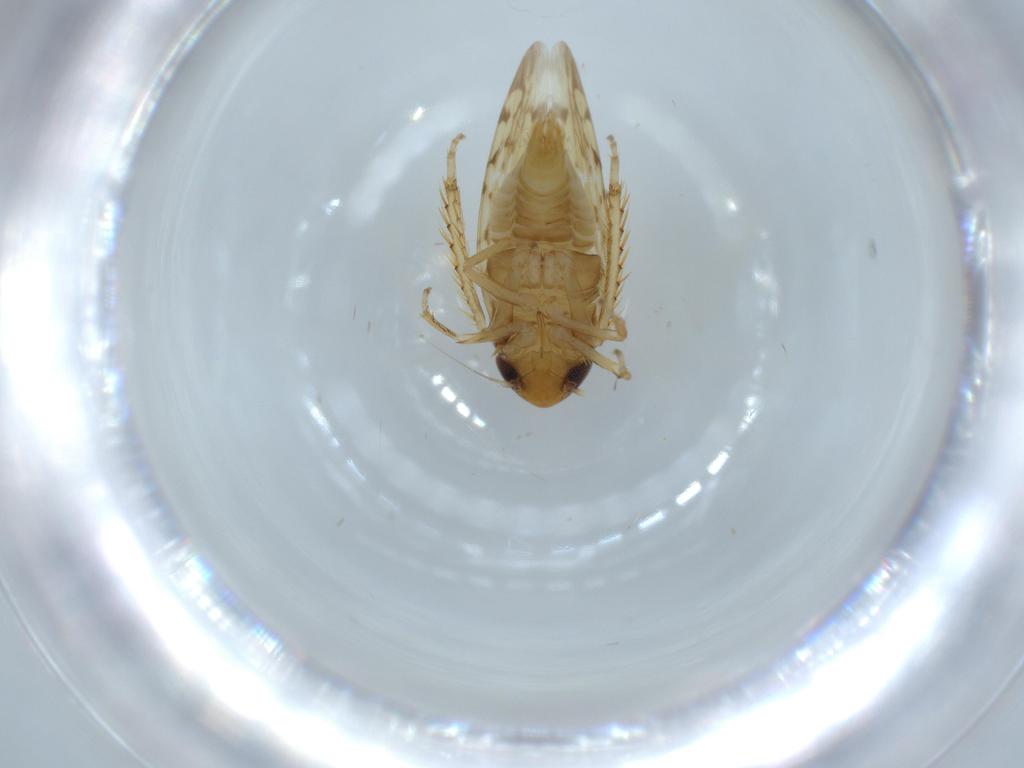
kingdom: Animalia
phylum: Arthropoda
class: Insecta
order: Hemiptera
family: Cicadellidae
